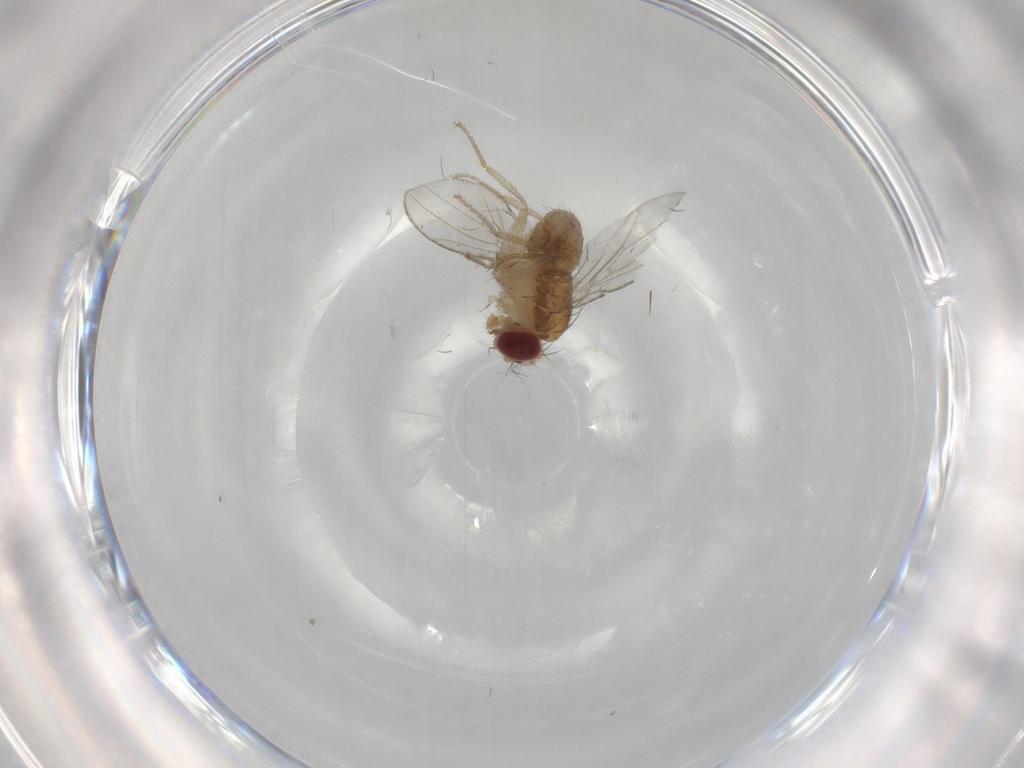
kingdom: Animalia
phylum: Arthropoda
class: Insecta
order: Diptera
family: Drosophilidae
